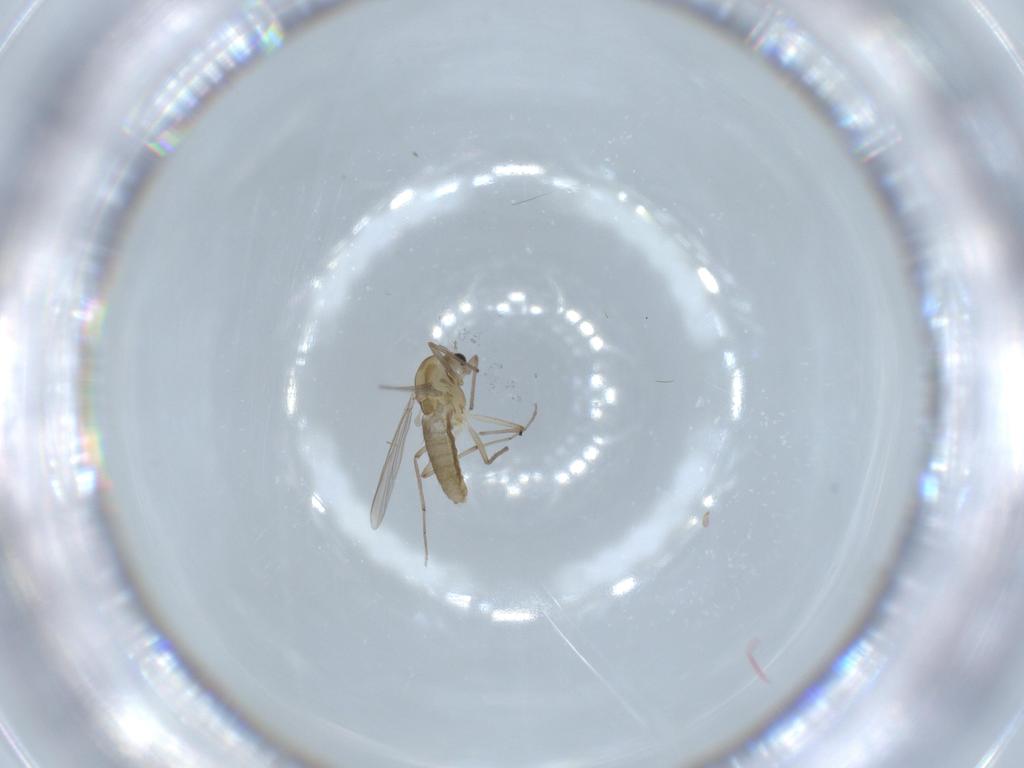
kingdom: Animalia
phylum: Arthropoda
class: Insecta
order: Diptera
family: Chironomidae
